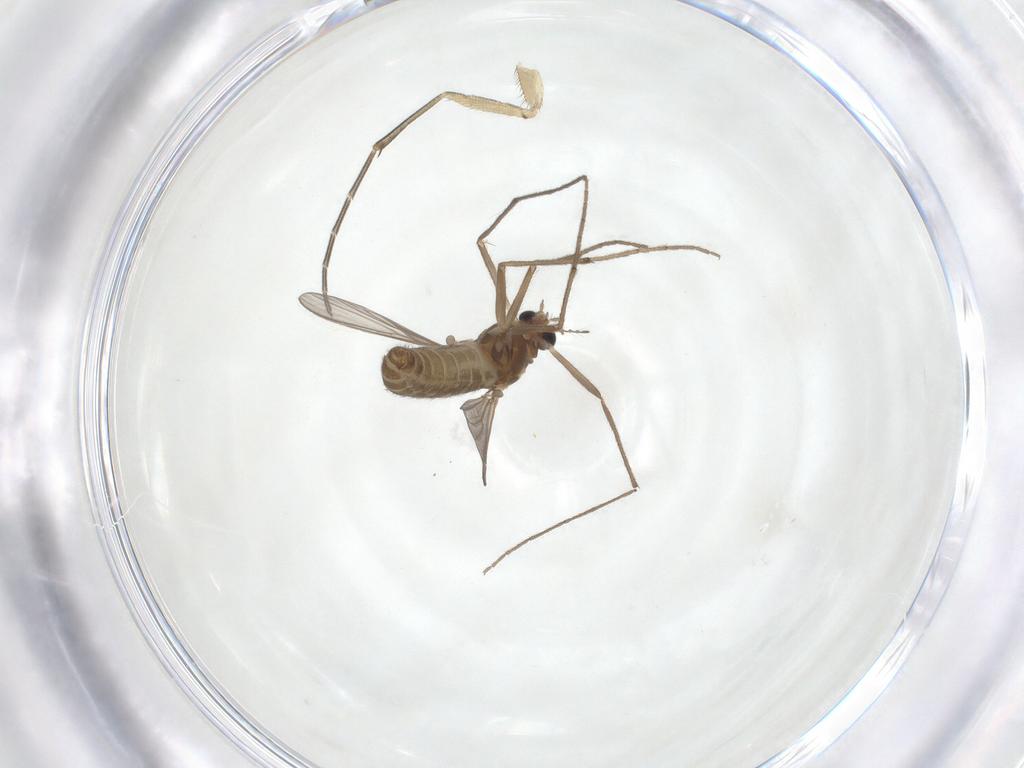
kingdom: Animalia
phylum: Arthropoda
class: Insecta
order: Diptera
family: Chironomidae
